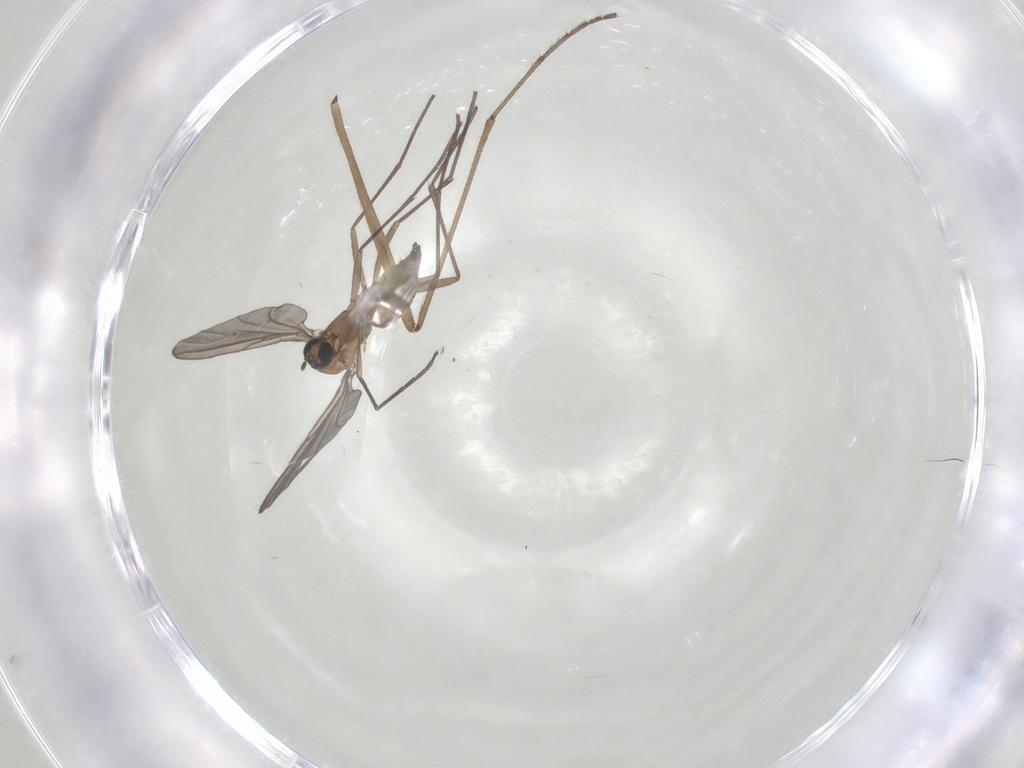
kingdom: Animalia
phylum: Arthropoda
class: Insecta
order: Diptera
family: Sciaridae
